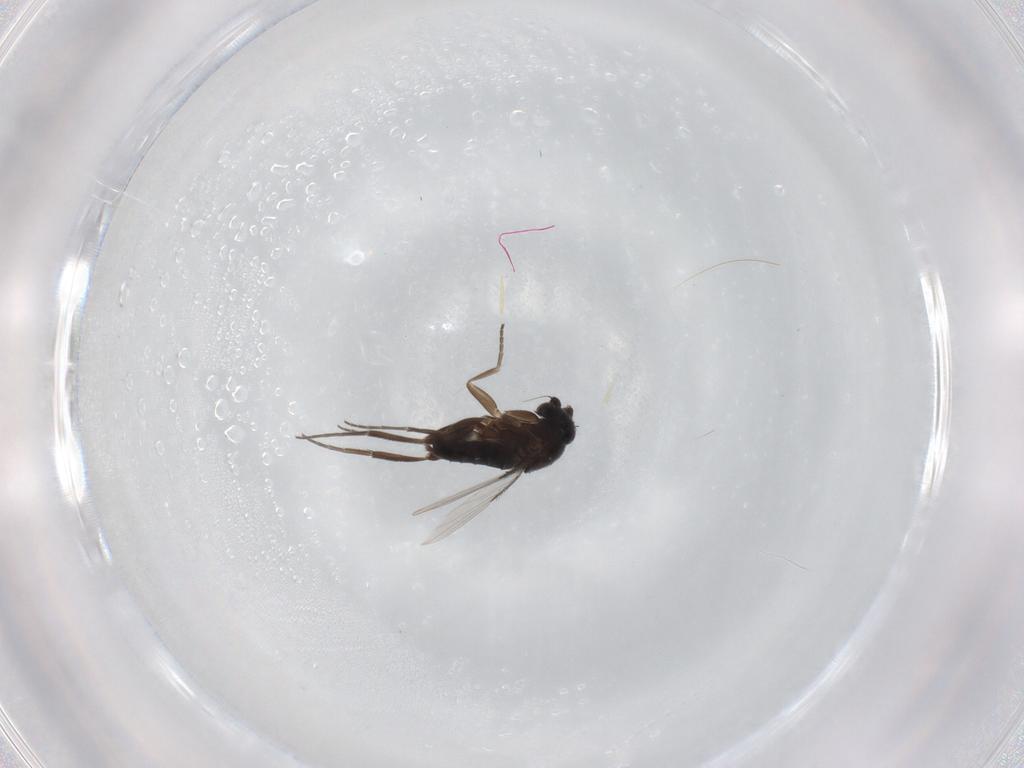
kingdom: Animalia
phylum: Arthropoda
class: Insecta
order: Diptera
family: Phoridae
